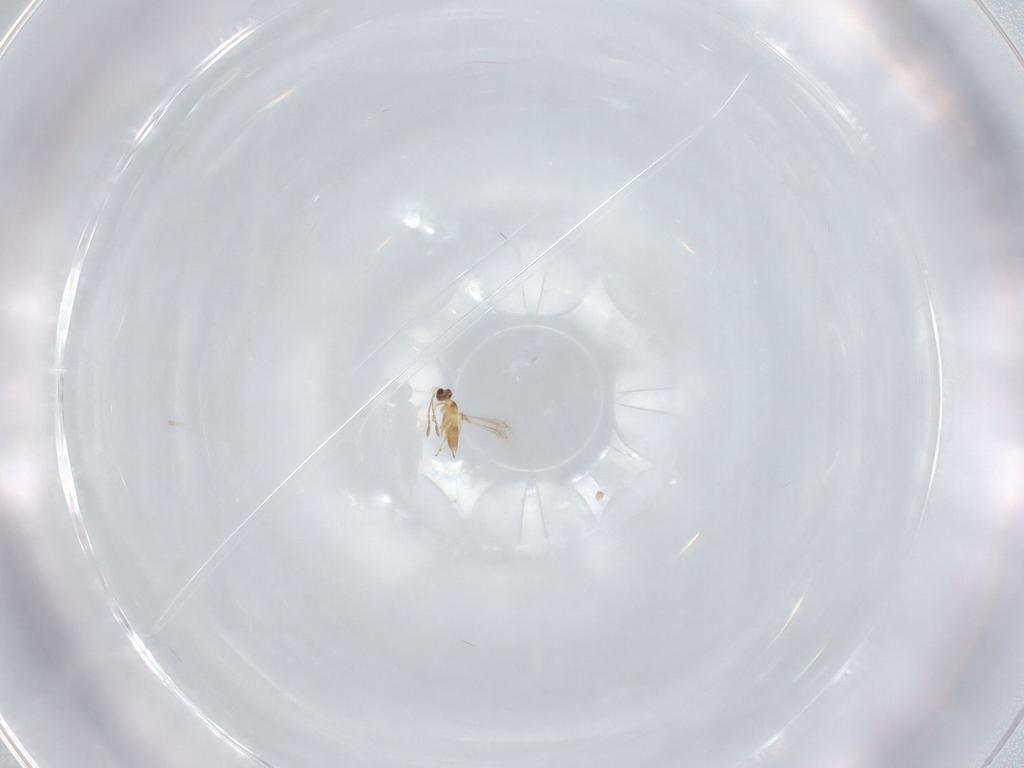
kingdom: Animalia
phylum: Arthropoda
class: Insecta
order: Hymenoptera
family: Mymaridae
